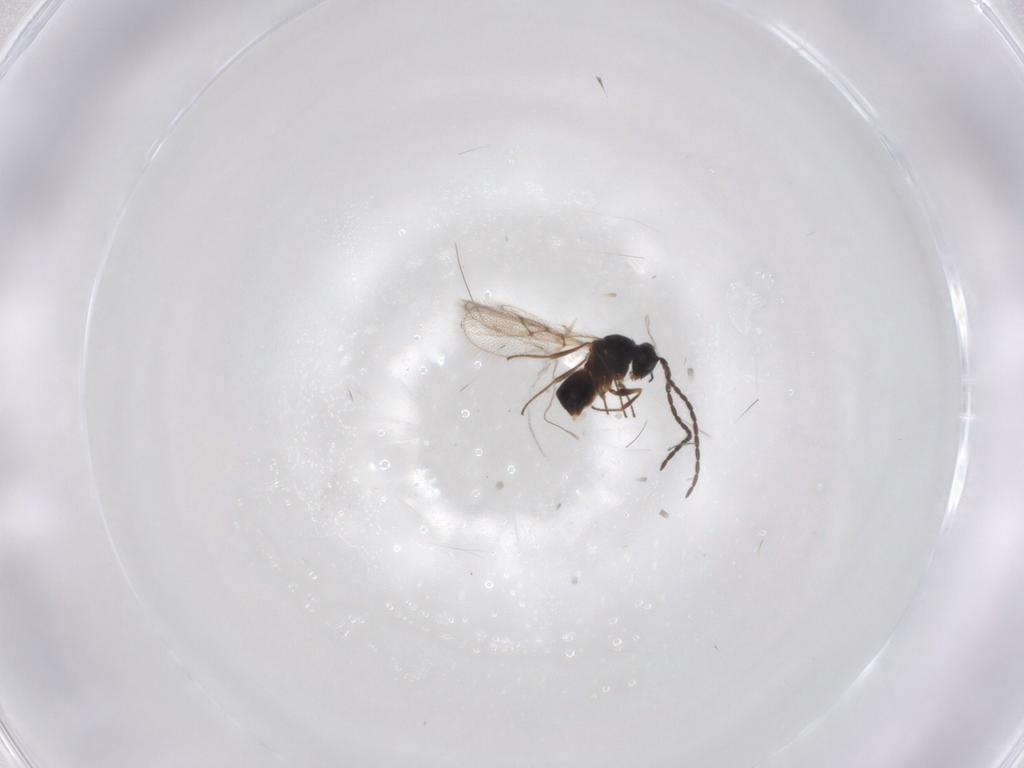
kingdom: Animalia
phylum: Arthropoda
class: Insecta
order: Hymenoptera
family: Figitidae
